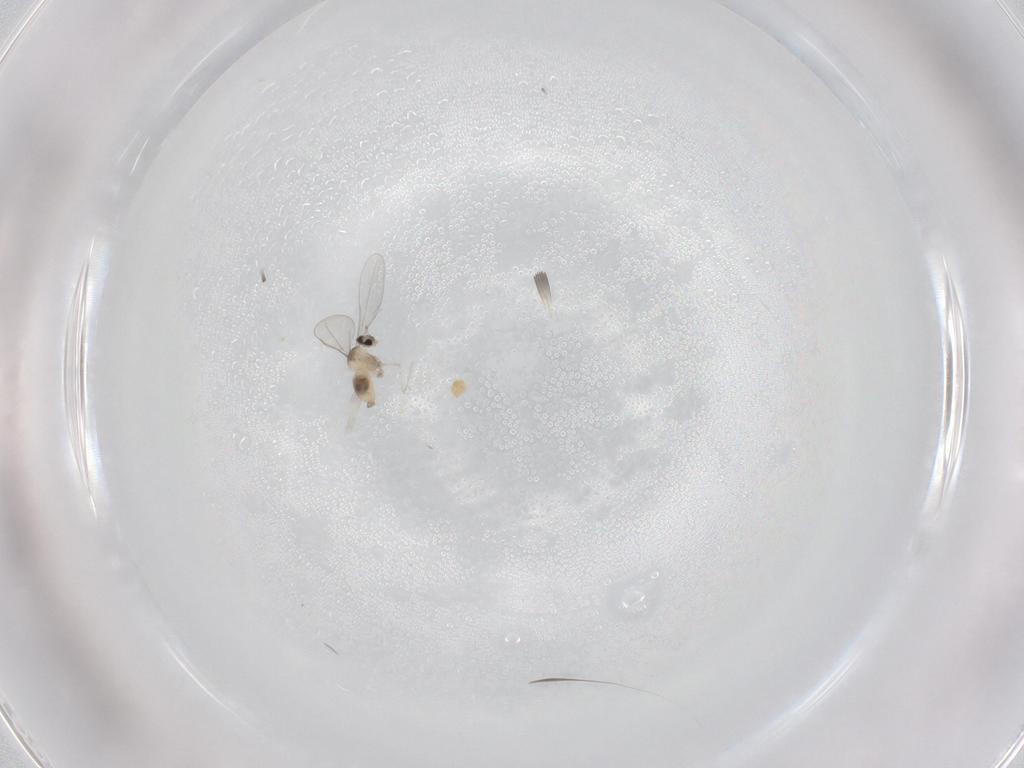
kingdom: Animalia
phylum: Arthropoda
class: Insecta
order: Diptera
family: Cecidomyiidae
